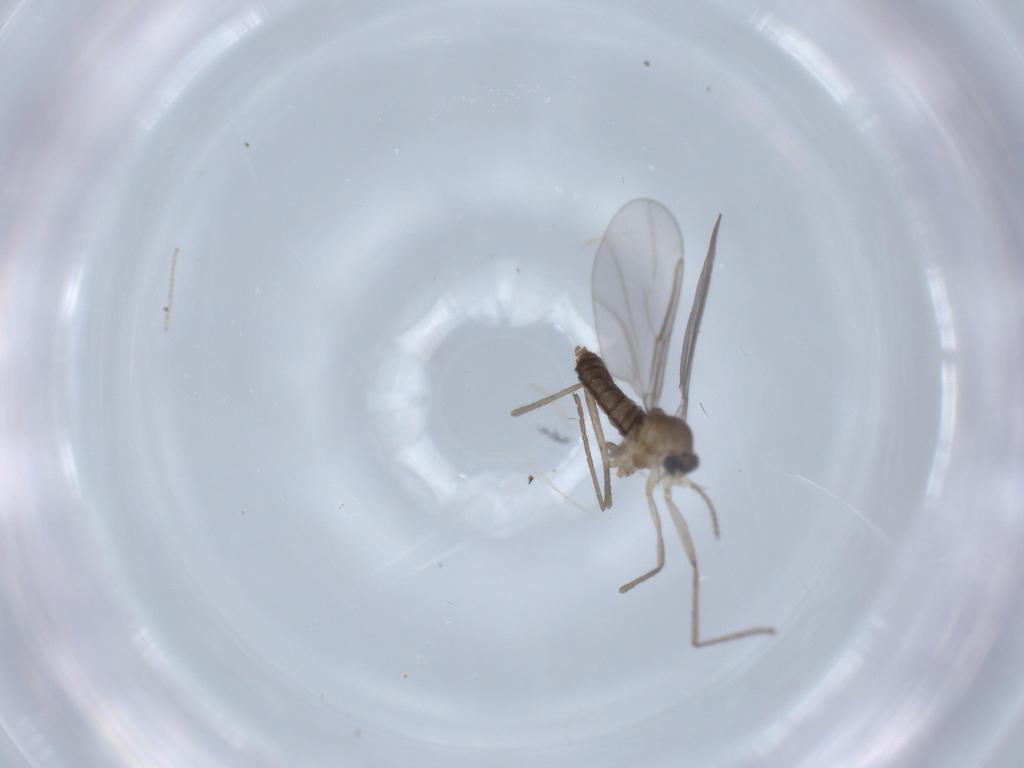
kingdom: Animalia
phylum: Arthropoda
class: Insecta
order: Diptera
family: Cecidomyiidae
